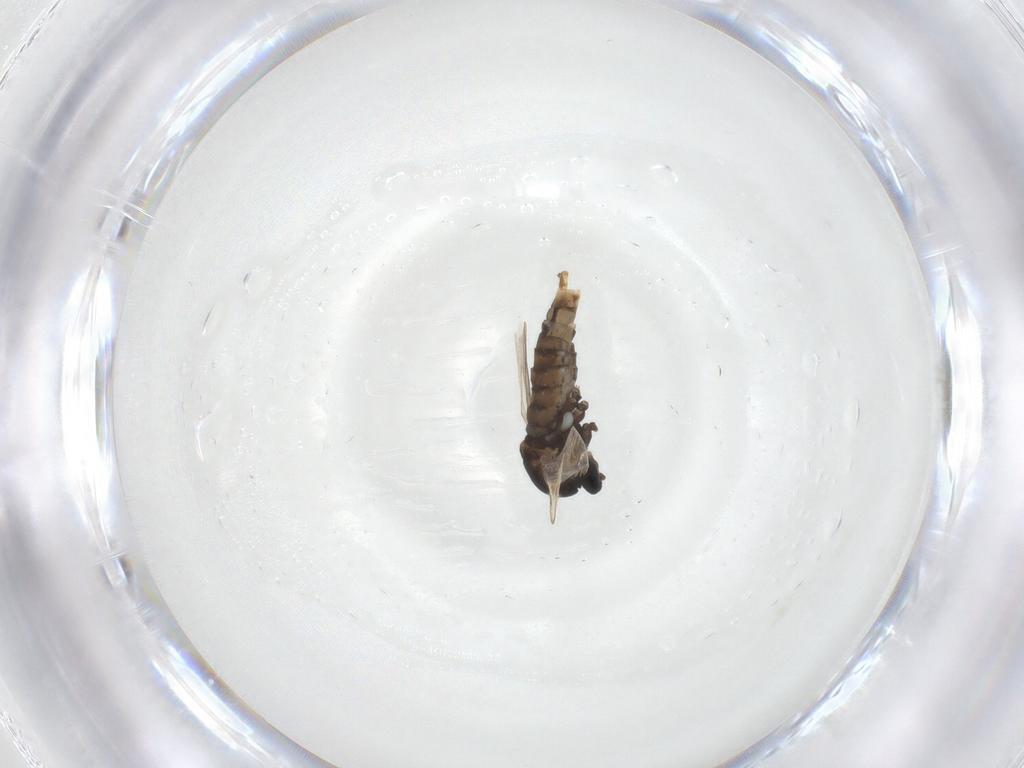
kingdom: Animalia
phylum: Arthropoda
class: Insecta
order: Diptera
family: Cecidomyiidae
